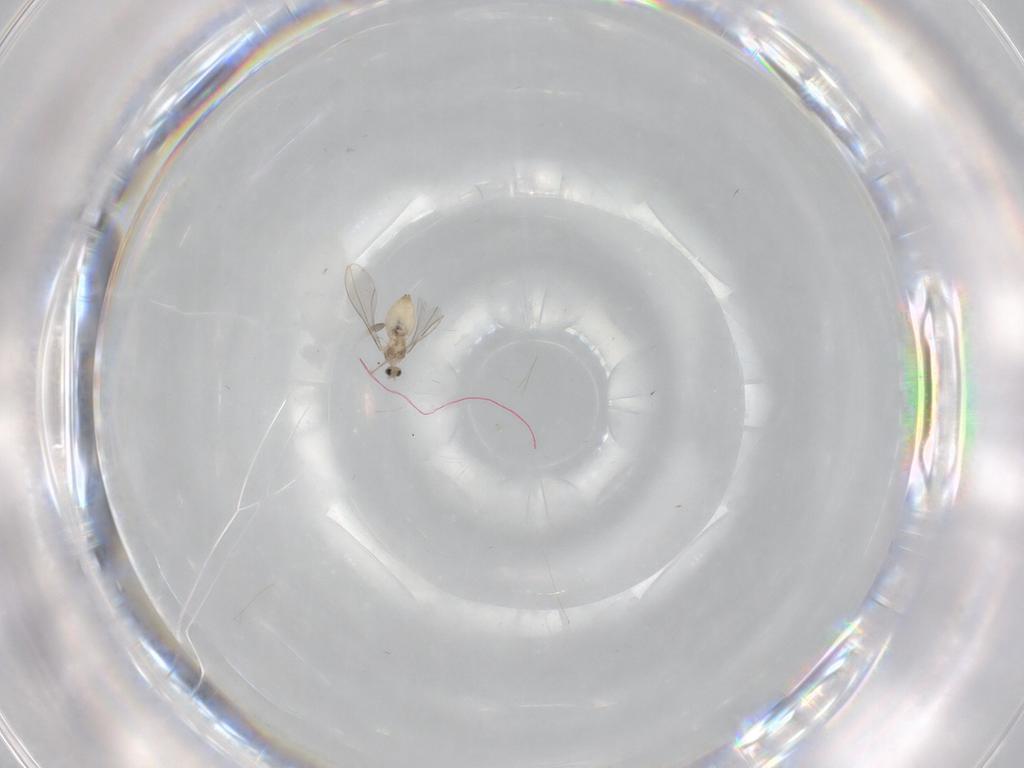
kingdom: Animalia
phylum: Arthropoda
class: Insecta
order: Diptera
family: Cecidomyiidae
